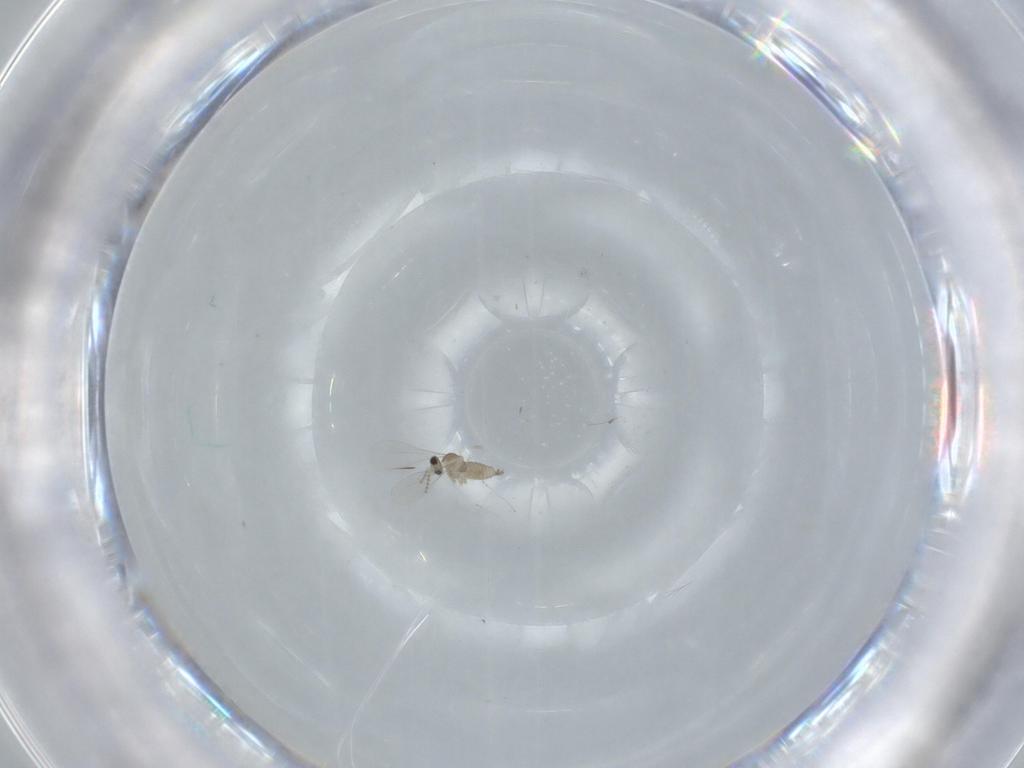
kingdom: Animalia
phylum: Arthropoda
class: Insecta
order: Diptera
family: Cecidomyiidae
